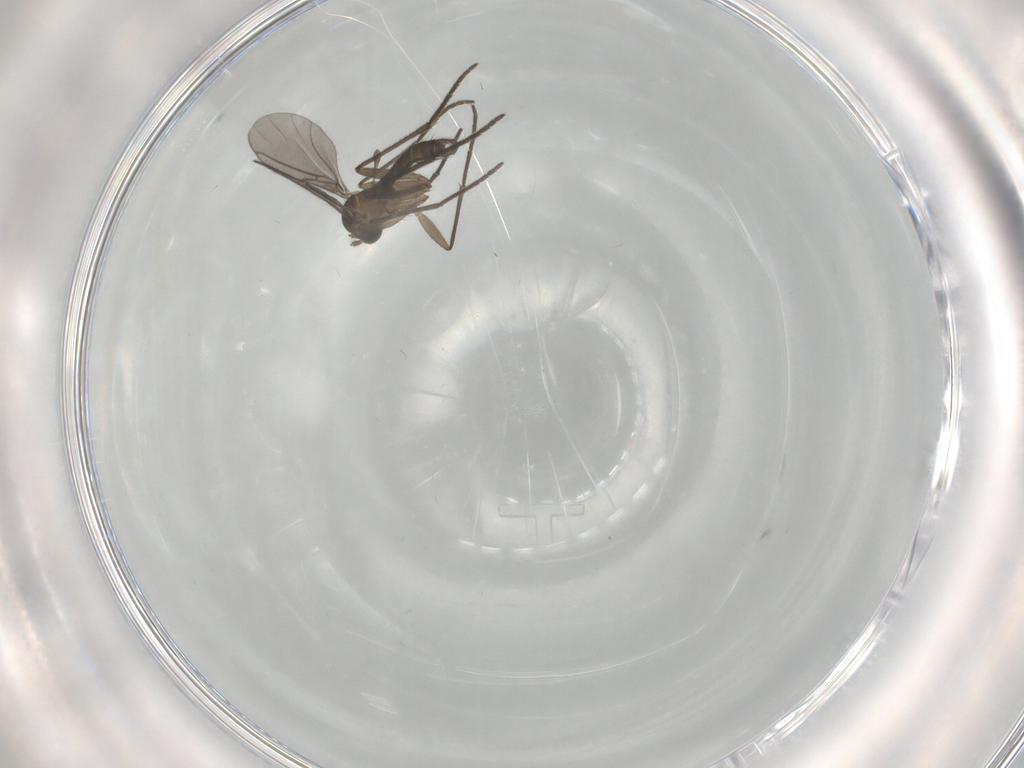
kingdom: Animalia
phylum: Arthropoda
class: Insecta
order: Diptera
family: Sciaridae
